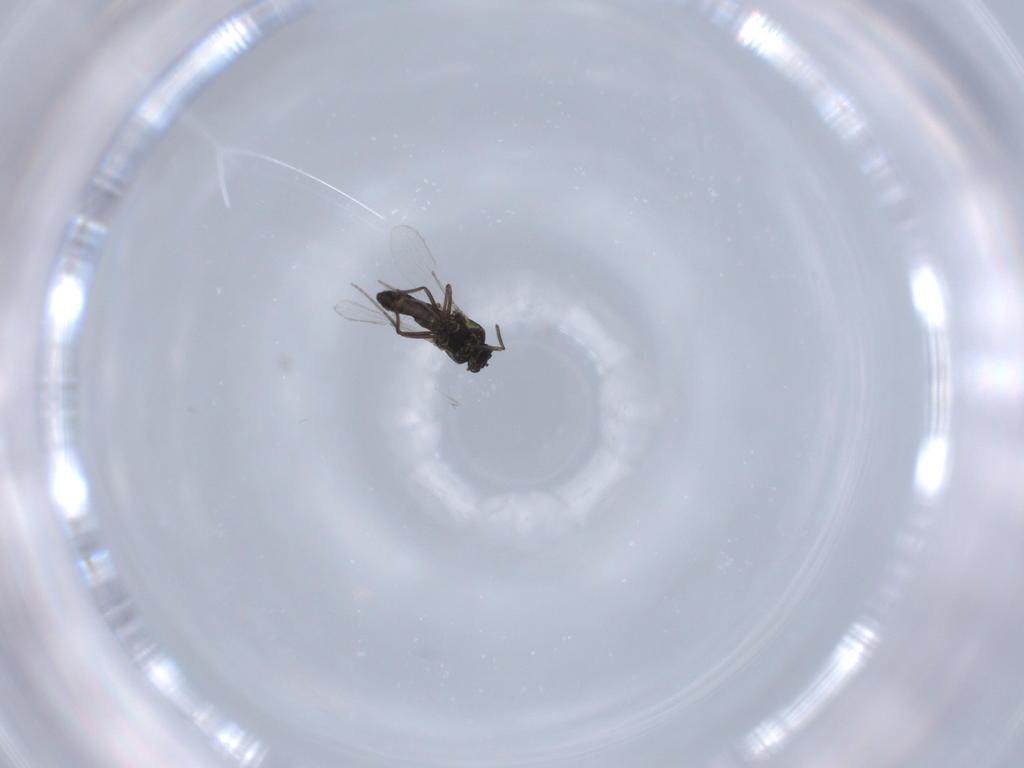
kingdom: Animalia
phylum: Arthropoda
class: Insecta
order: Diptera
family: Ceratopogonidae
